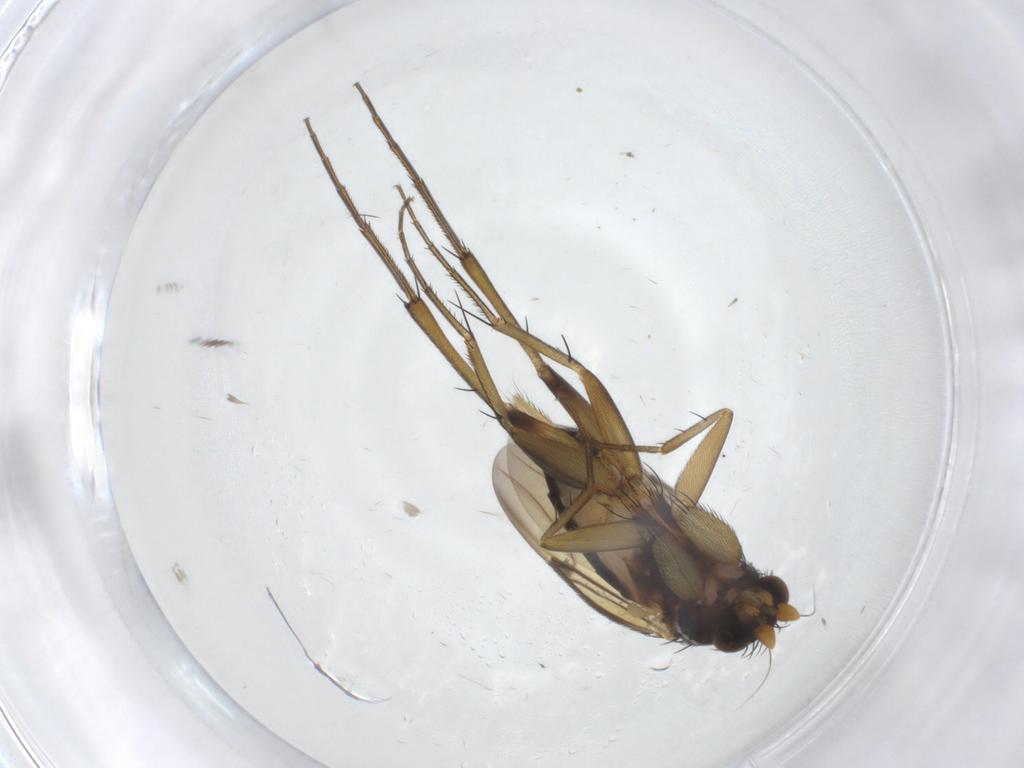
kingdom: Animalia
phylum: Arthropoda
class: Insecta
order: Diptera
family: Phoridae
